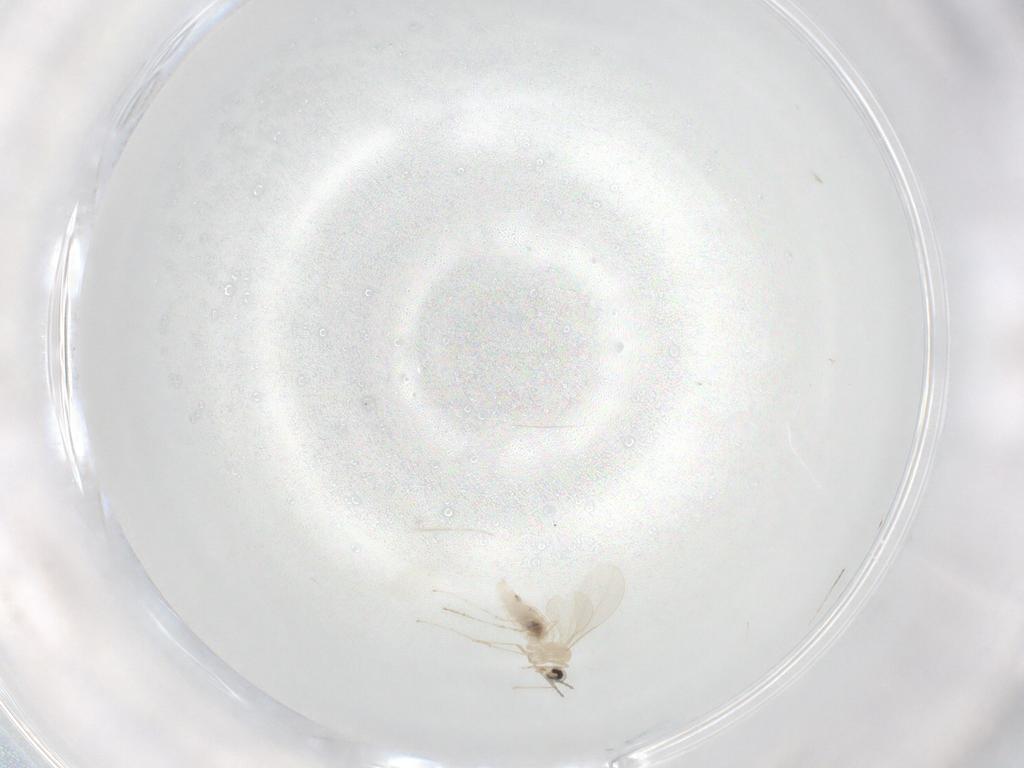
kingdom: Animalia
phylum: Arthropoda
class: Insecta
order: Diptera
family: Cecidomyiidae
